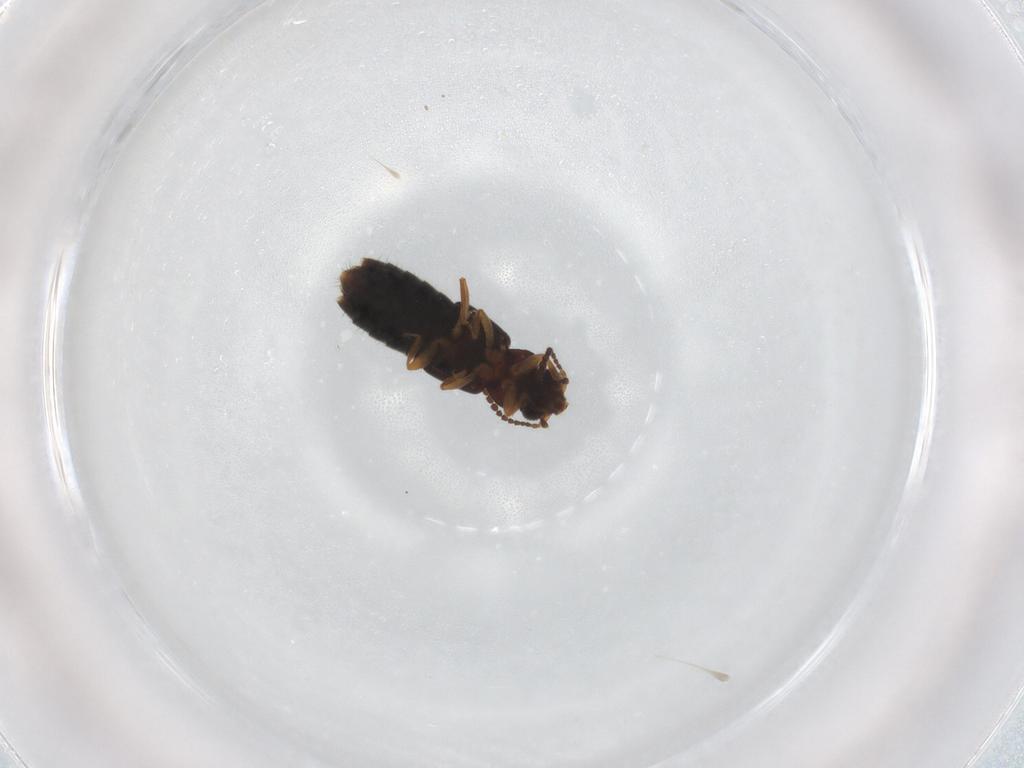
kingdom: Animalia
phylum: Arthropoda
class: Insecta
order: Coleoptera
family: Staphylinidae
